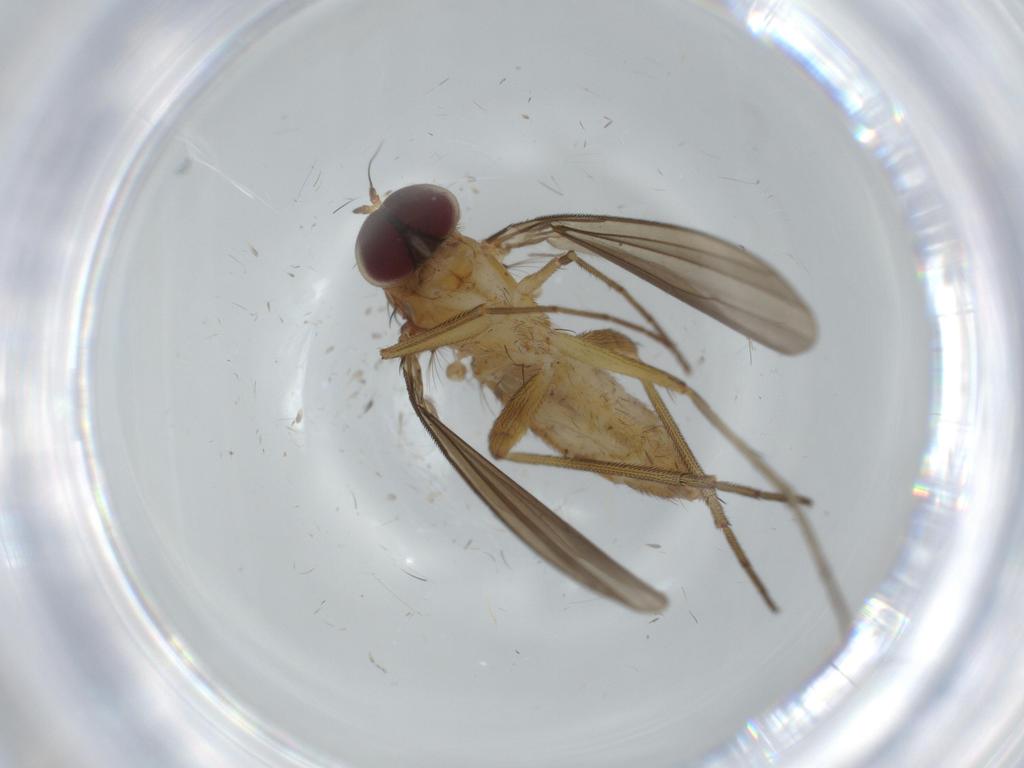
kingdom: Animalia
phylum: Arthropoda
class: Insecta
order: Diptera
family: Dolichopodidae
